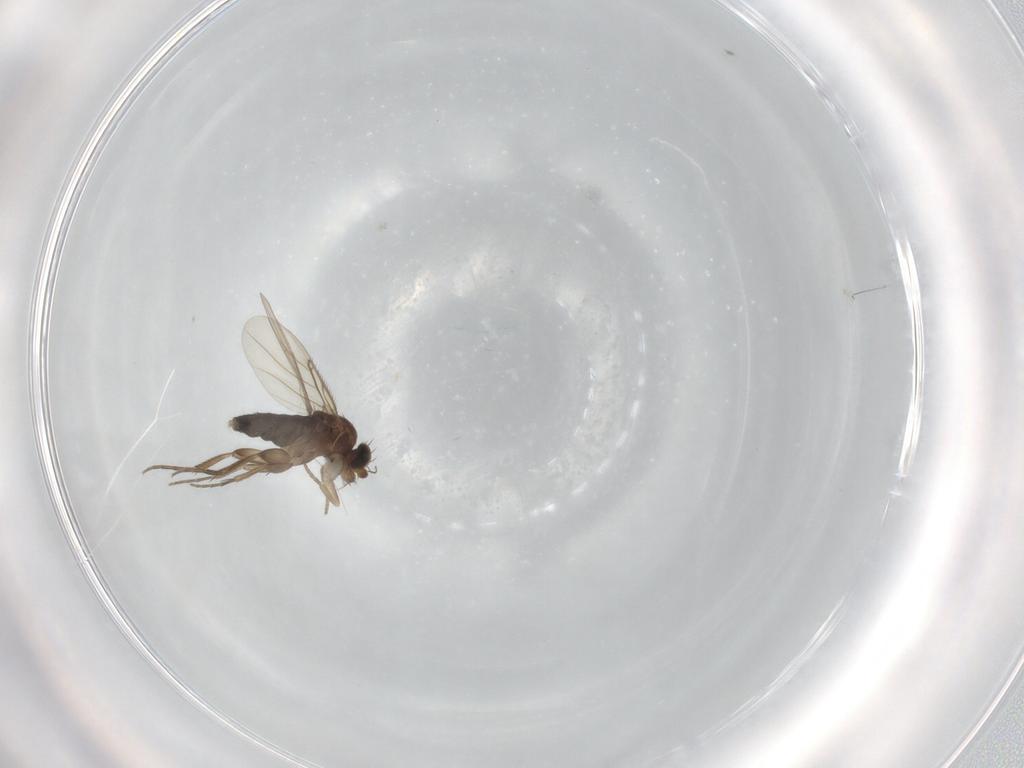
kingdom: Animalia
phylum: Arthropoda
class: Insecta
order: Diptera
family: Phoridae
